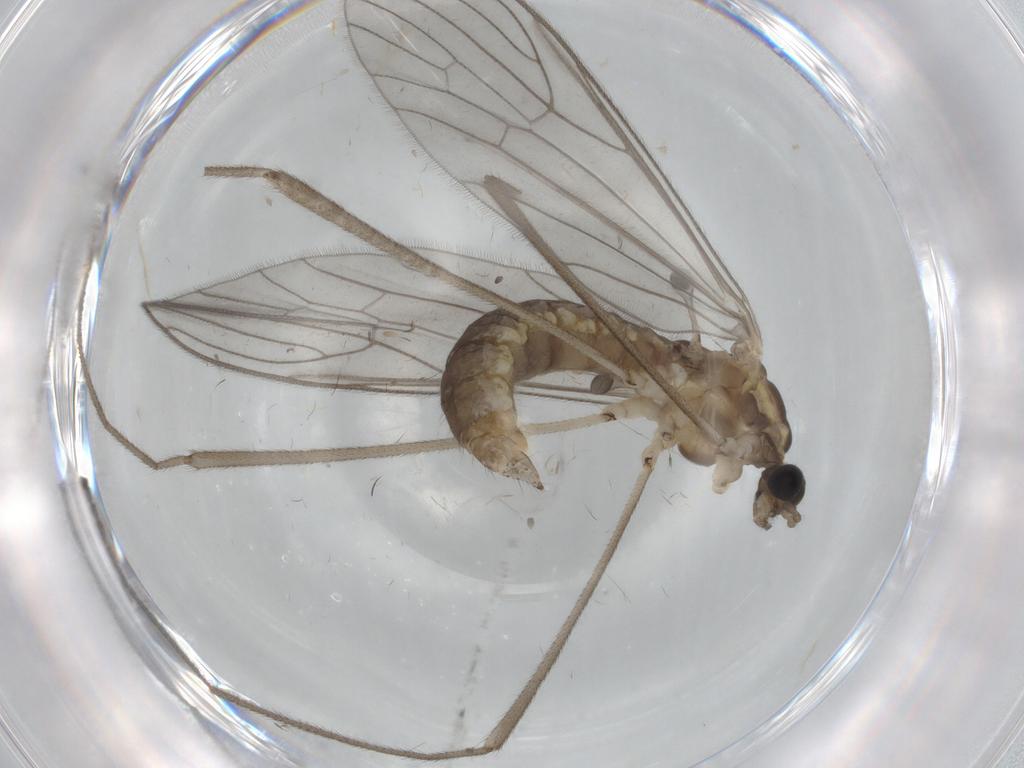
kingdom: Animalia
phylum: Arthropoda
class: Insecta
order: Diptera
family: Limoniidae
